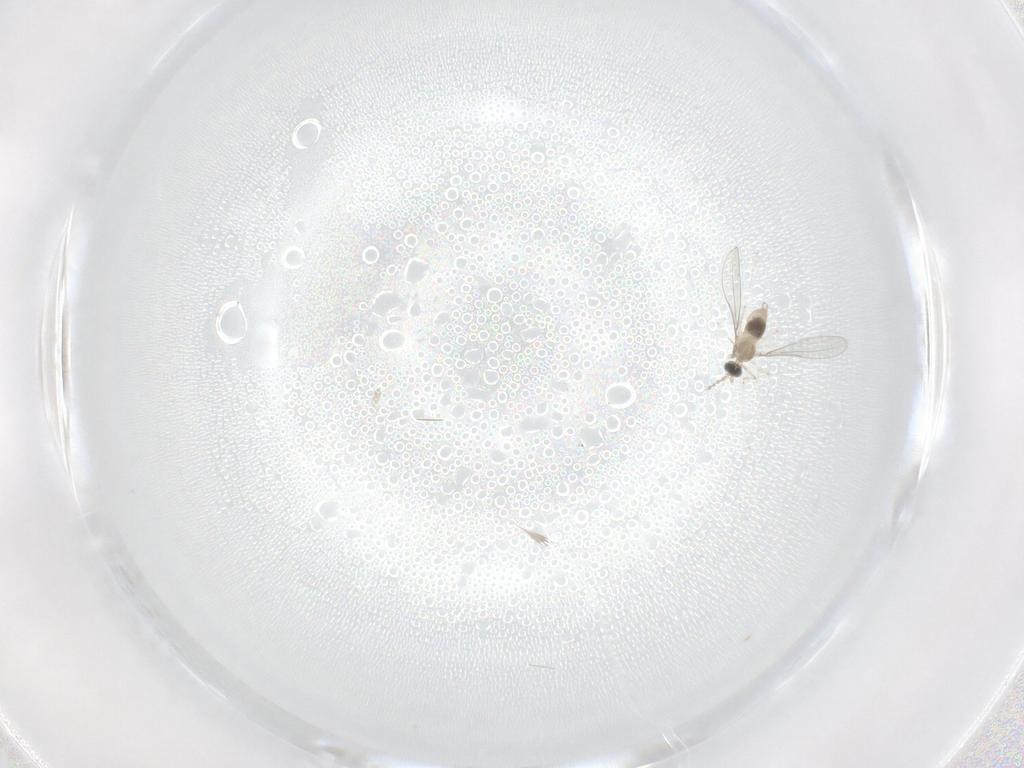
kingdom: Animalia
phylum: Arthropoda
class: Insecta
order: Diptera
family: Cecidomyiidae
